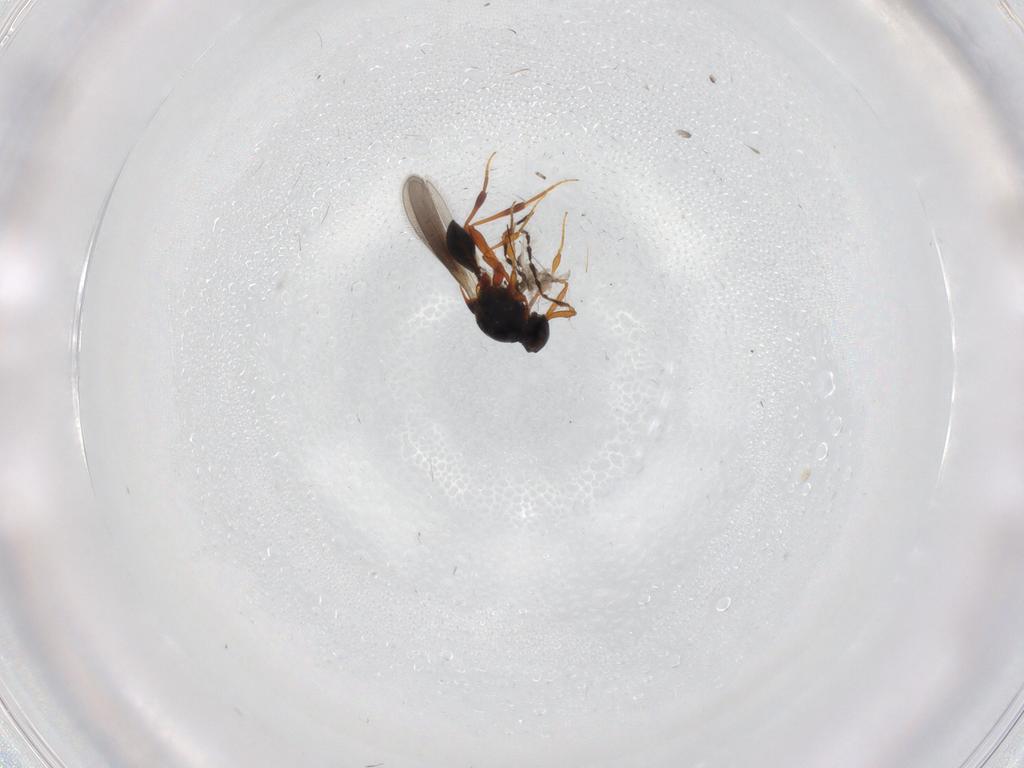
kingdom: Animalia
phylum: Arthropoda
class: Insecta
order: Hymenoptera
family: Platygastridae
